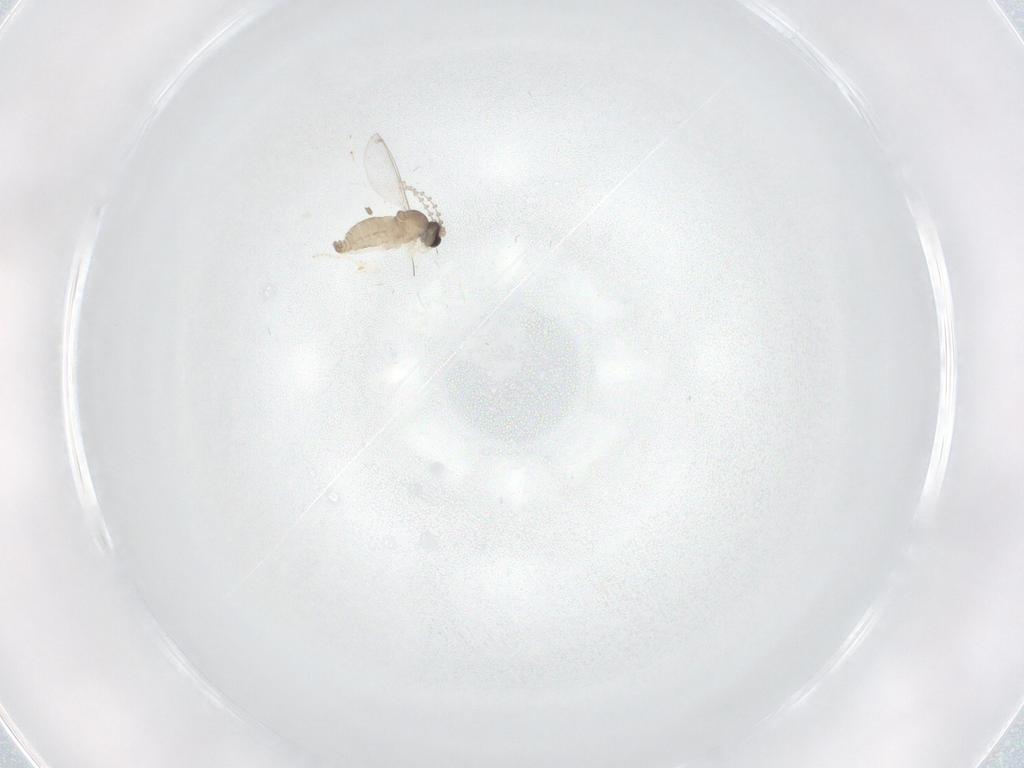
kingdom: Animalia
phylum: Arthropoda
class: Insecta
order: Diptera
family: Cecidomyiidae
